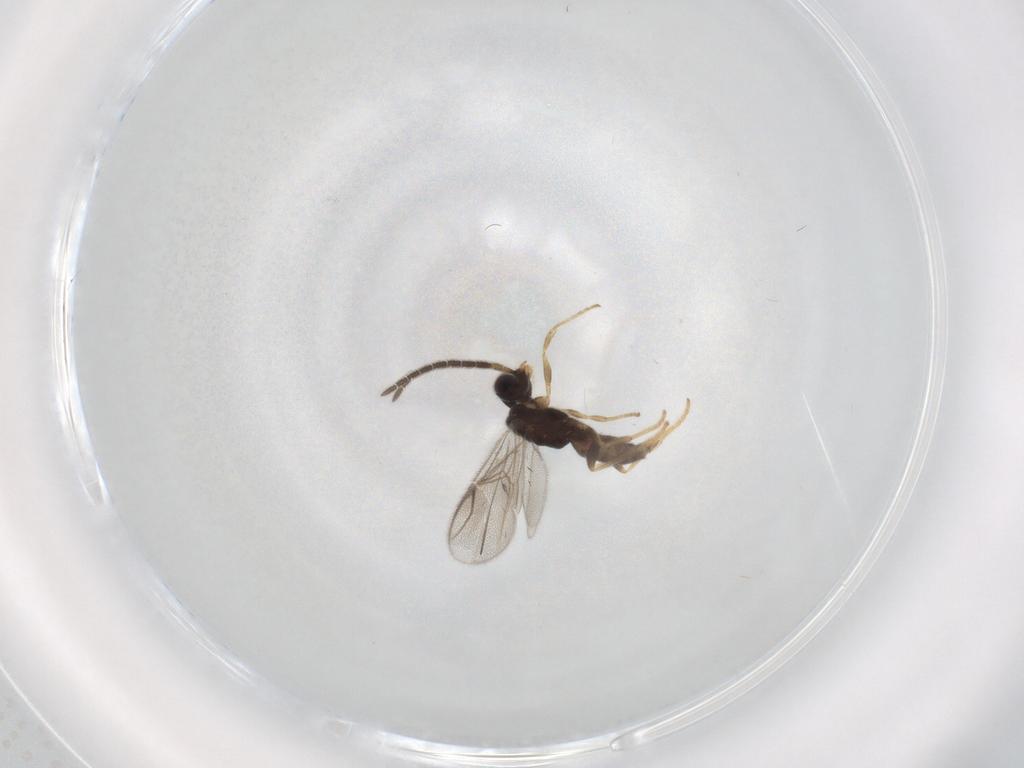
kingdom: Animalia
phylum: Arthropoda
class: Insecta
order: Hymenoptera
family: Dryinidae
